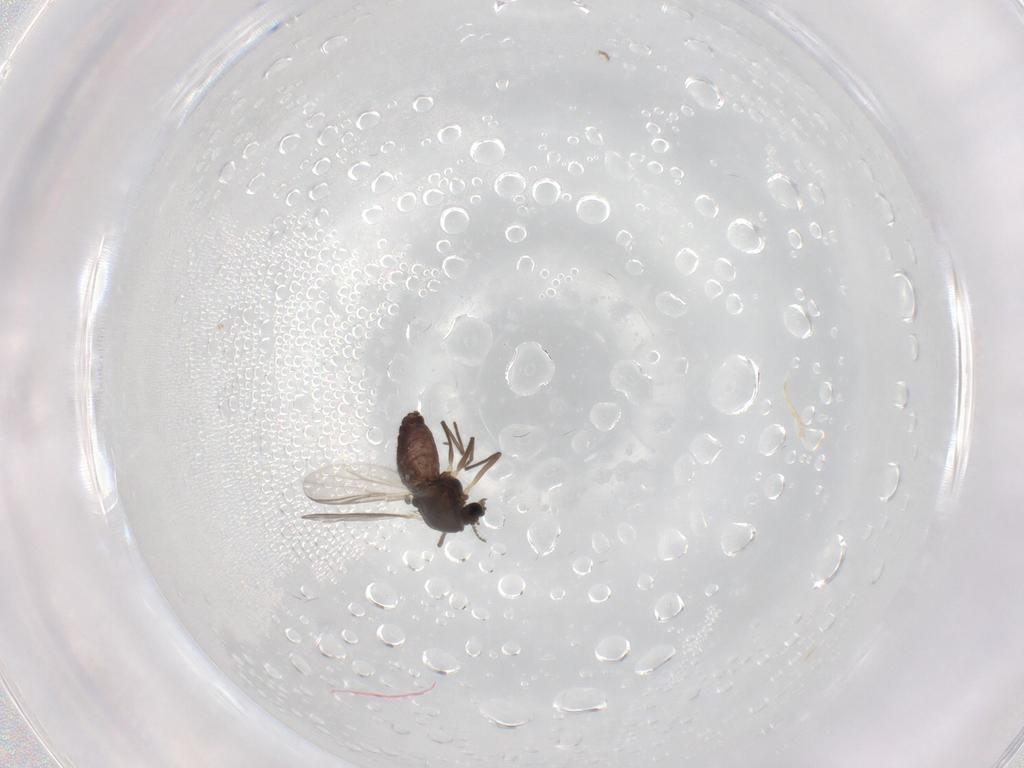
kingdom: Animalia
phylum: Arthropoda
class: Insecta
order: Diptera
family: Chironomidae
